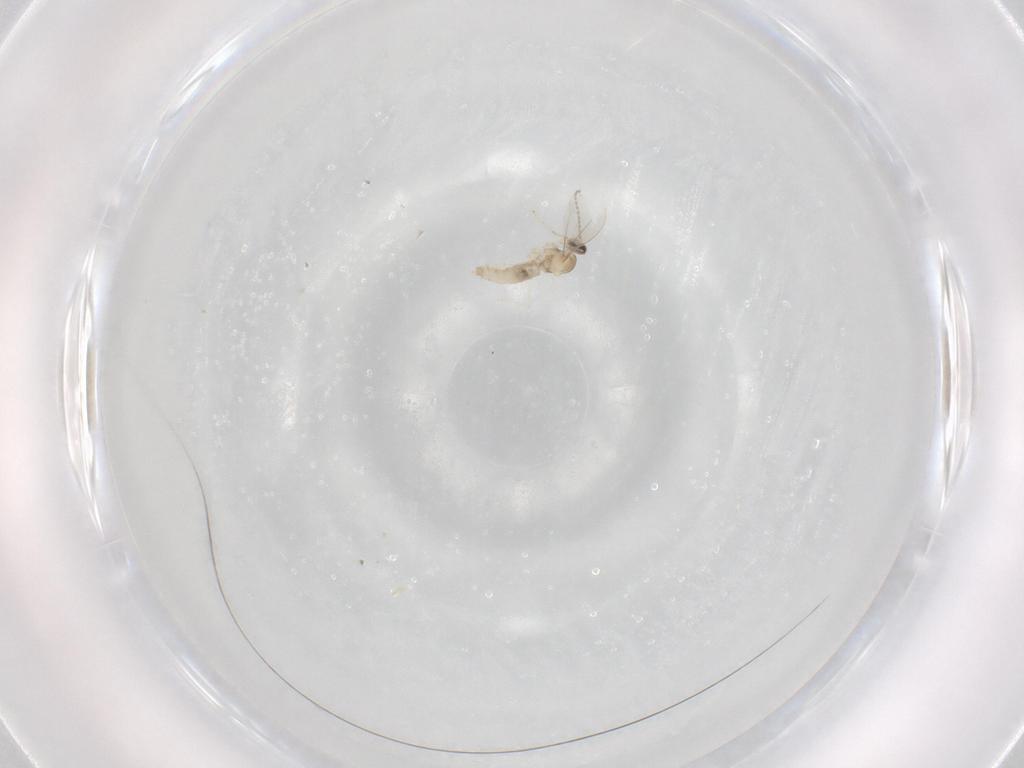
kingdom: Animalia
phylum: Arthropoda
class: Insecta
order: Diptera
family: Cecidomyiidae
